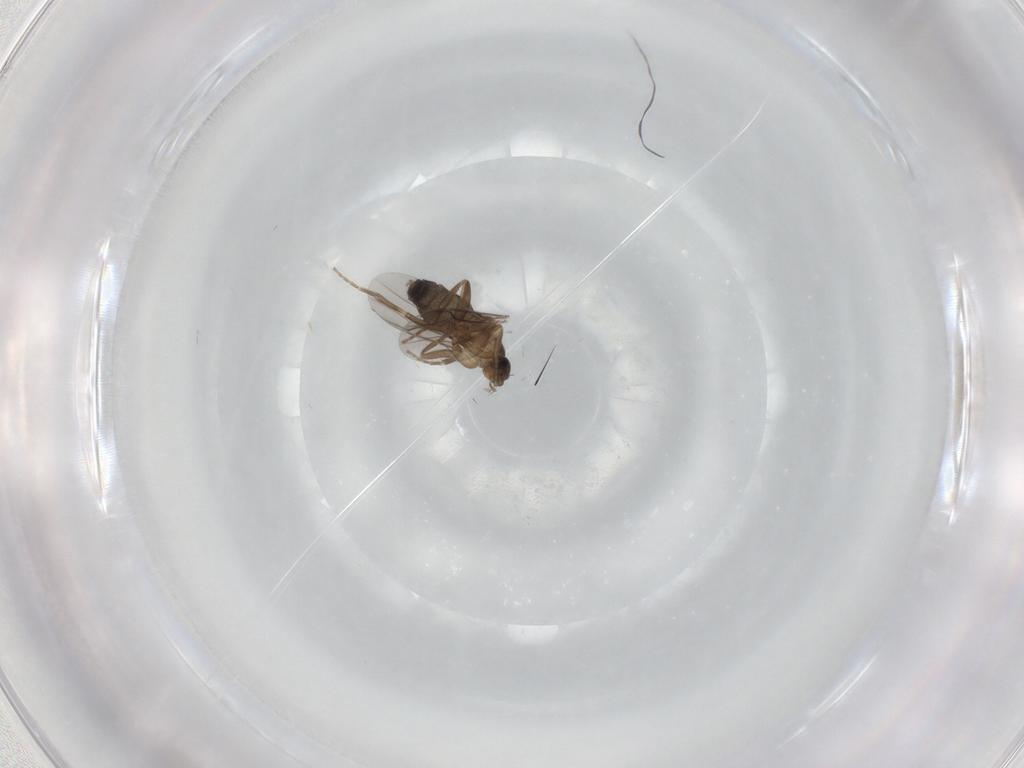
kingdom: Animalia
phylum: Arthropoda
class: Insecta
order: Diptera
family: Phoridae
